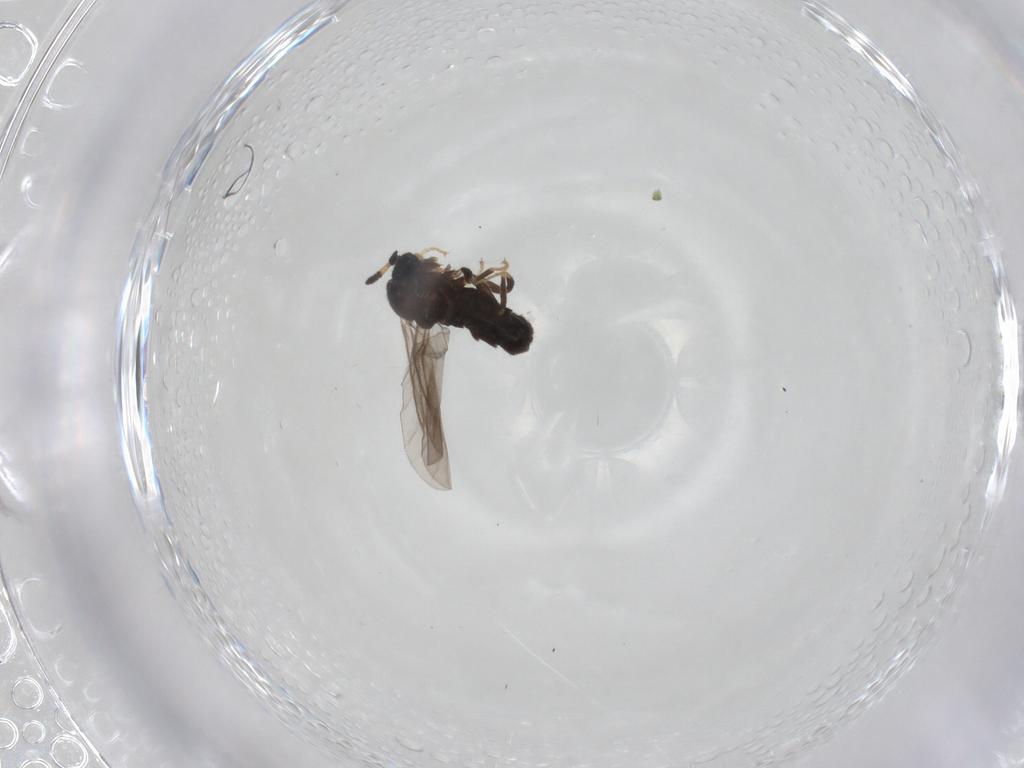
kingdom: Animalia
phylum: Arthropoda
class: Insecta
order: Diptera
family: Hybotidae
